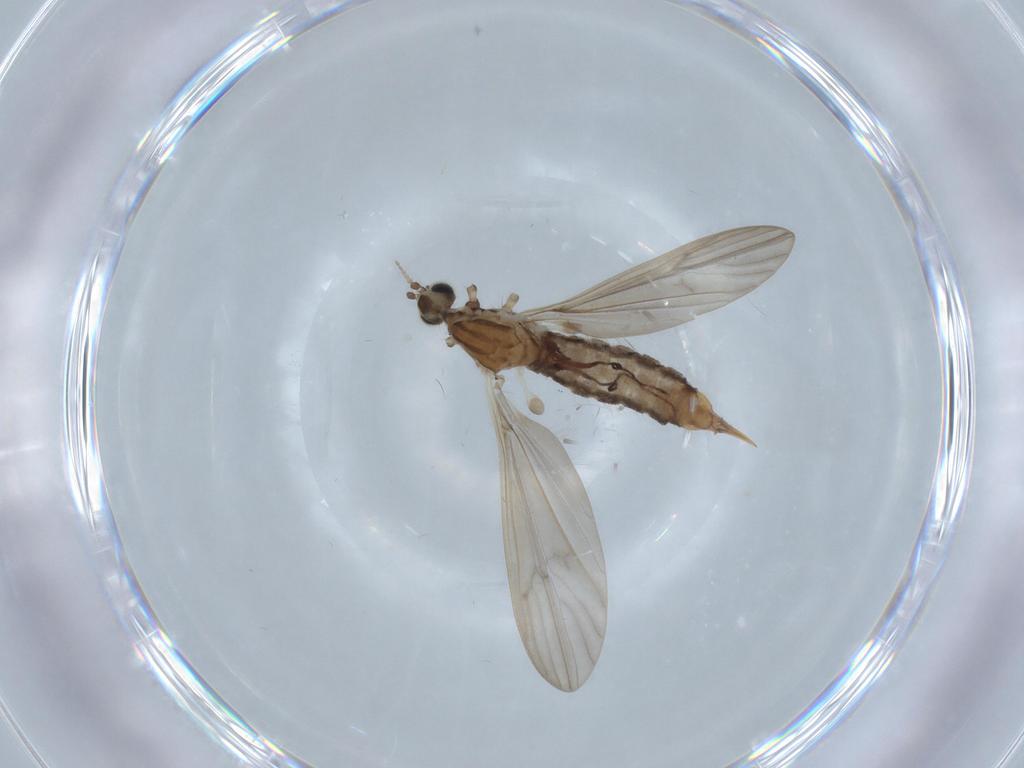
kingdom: Animalia
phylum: Arthropoda
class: Insecta
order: Diptera
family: Limoniidae
